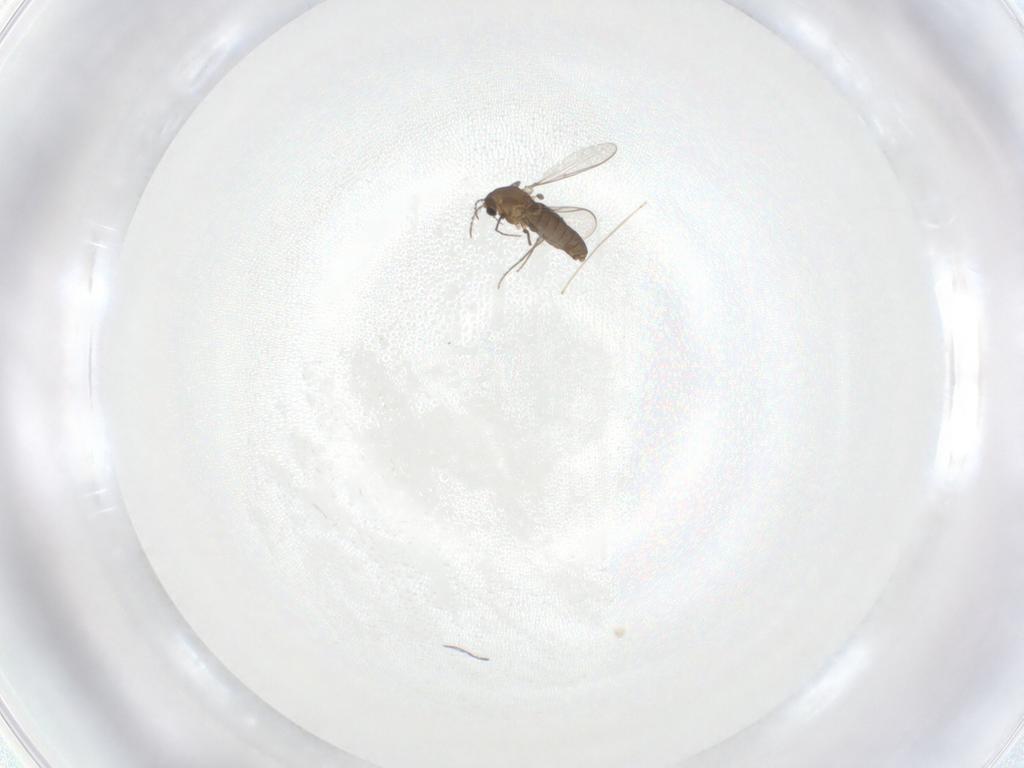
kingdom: Animalia
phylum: Arthropoda
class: Insecta
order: Diptera
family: Chironomidae
